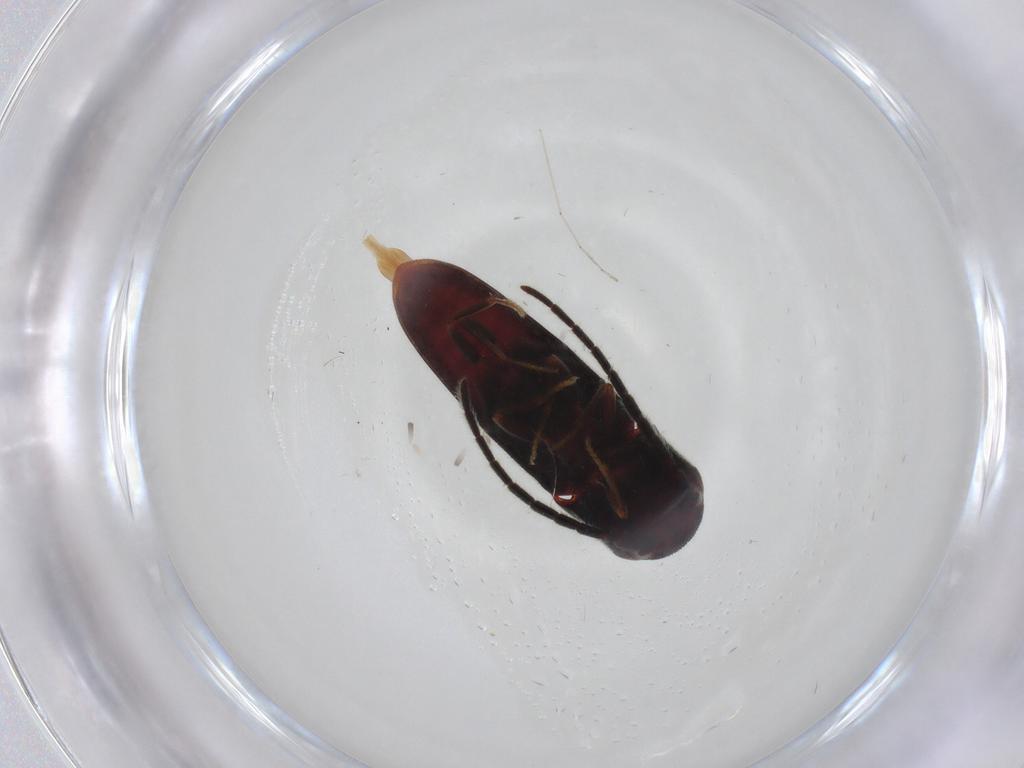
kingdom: Animalia
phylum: Arthropoda
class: Insecta
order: Coleoptera
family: Eucnemidae
